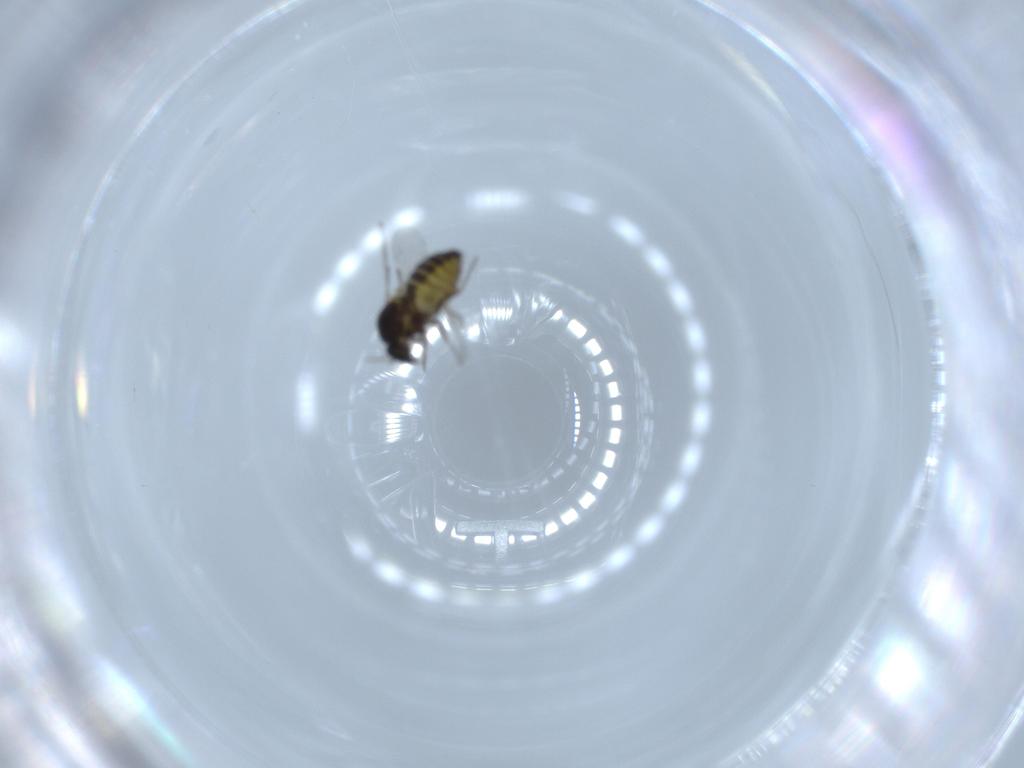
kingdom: Animalia
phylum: Arthropoda
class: Insecta
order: Diptera
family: Ceratopogonidae
